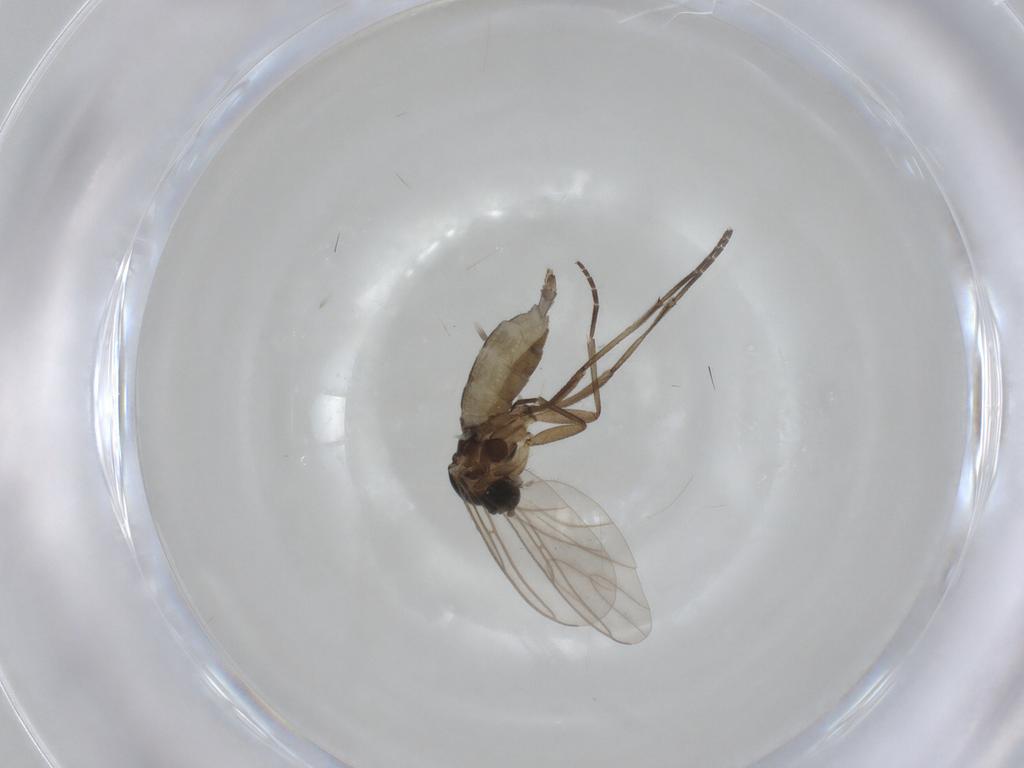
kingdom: Animalia
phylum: Arthropoda
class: Insecta
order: Diptera
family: Anthomyiidae
